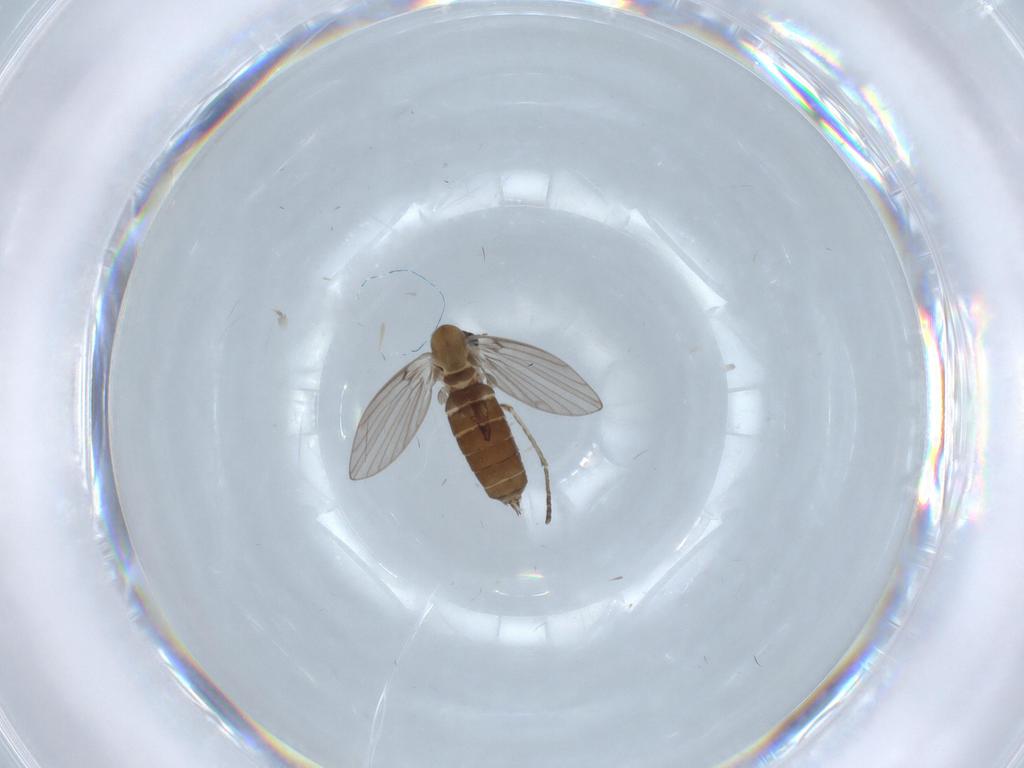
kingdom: Animalia
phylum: Arthropoda
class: Insecta
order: Diptera
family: Psychodidae
